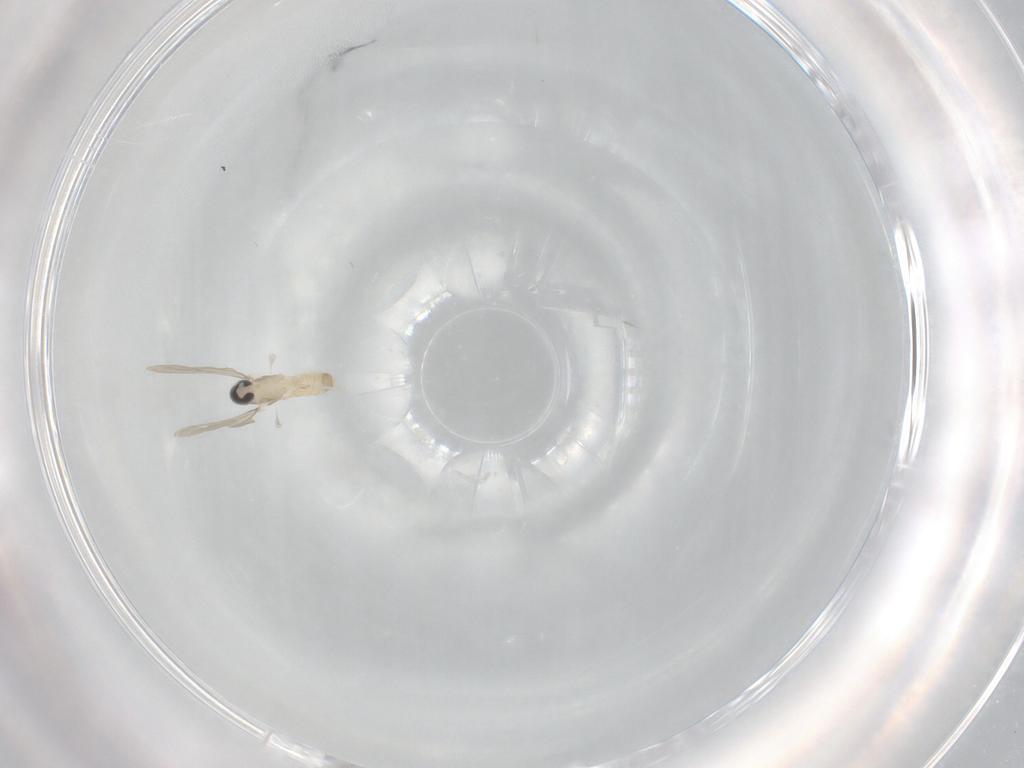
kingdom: Animalia
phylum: Arthropoda
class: Insecta
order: Diptera
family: Cecidomyiidae
